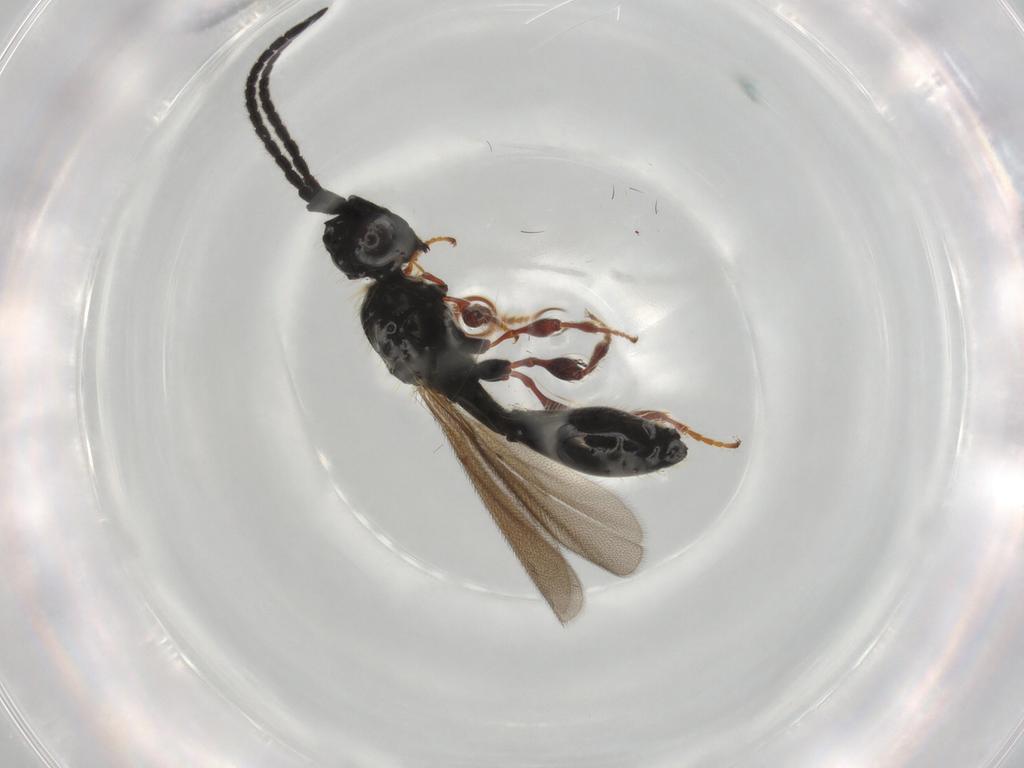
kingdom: Animalia
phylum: Arthropoda
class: Insecta
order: Hymenoptera
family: Diapriidae
